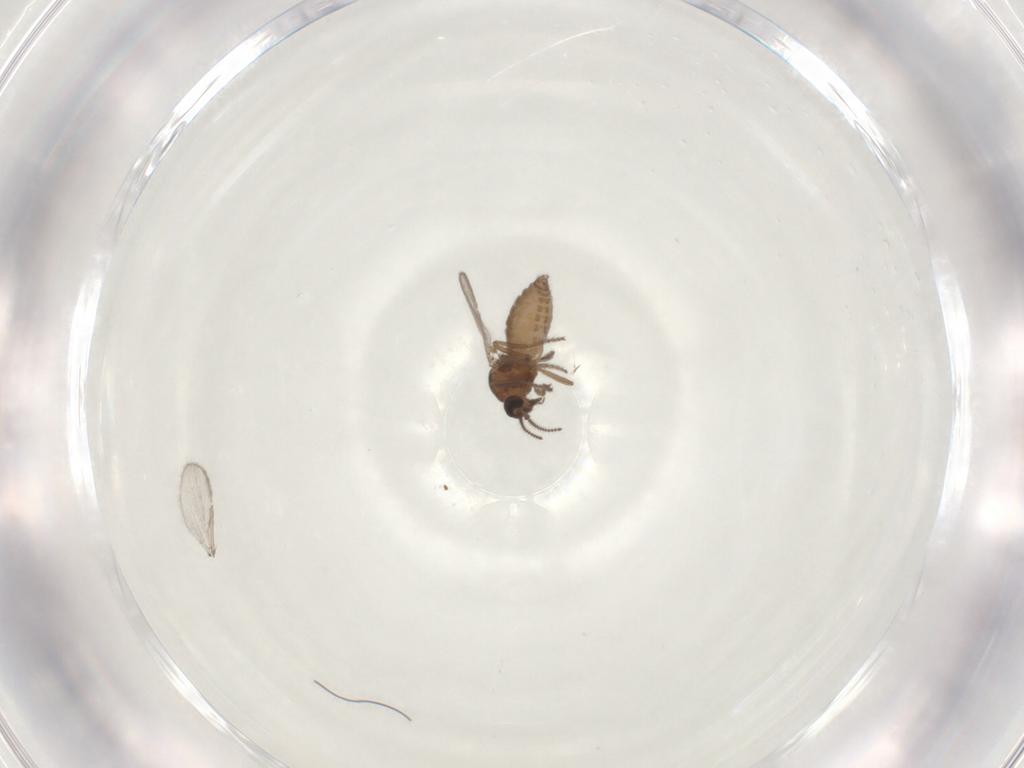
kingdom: Animalia
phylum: Arthropoda
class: Insecta
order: Diptera
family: Ceratopogonidae
